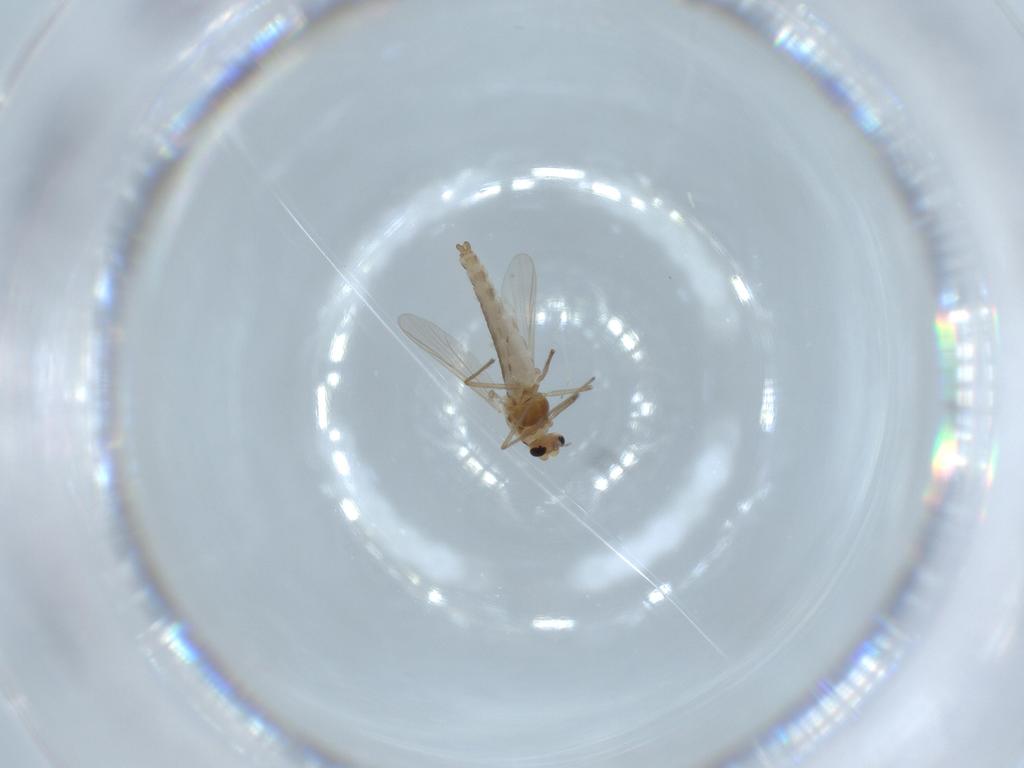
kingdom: Animalia
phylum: Arthropoda
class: Insecta
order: Diptera
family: Chironomidae
